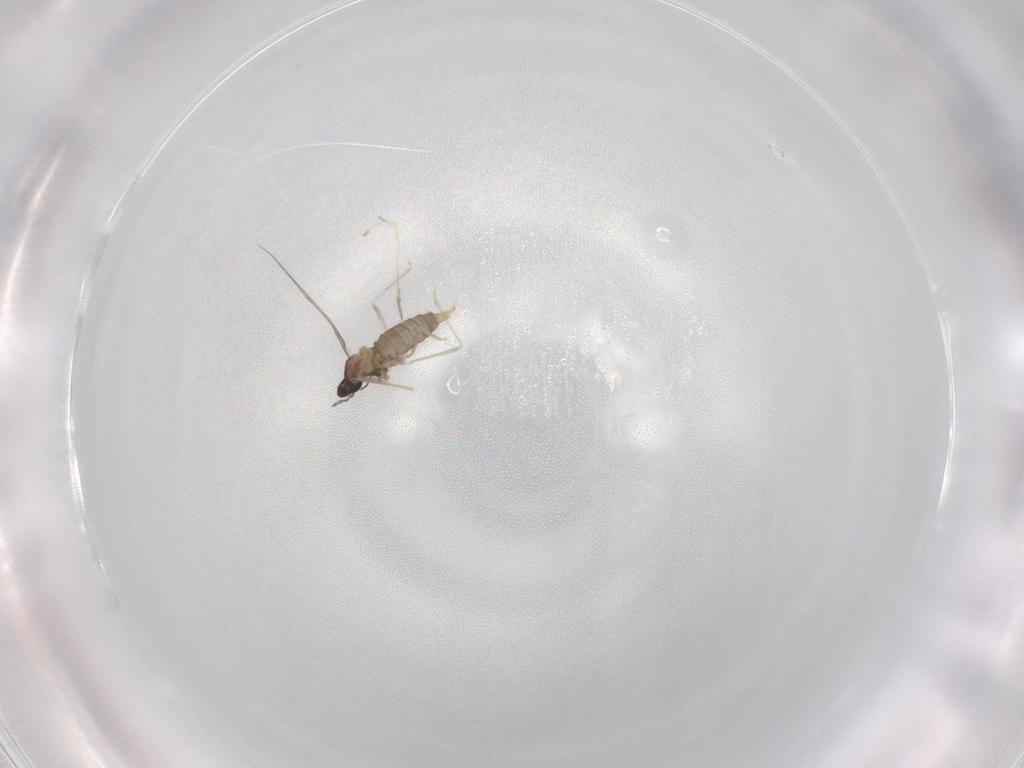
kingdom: Animalia
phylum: Arthropoda
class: Insecta
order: Diptera
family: Cecidomyiidae
